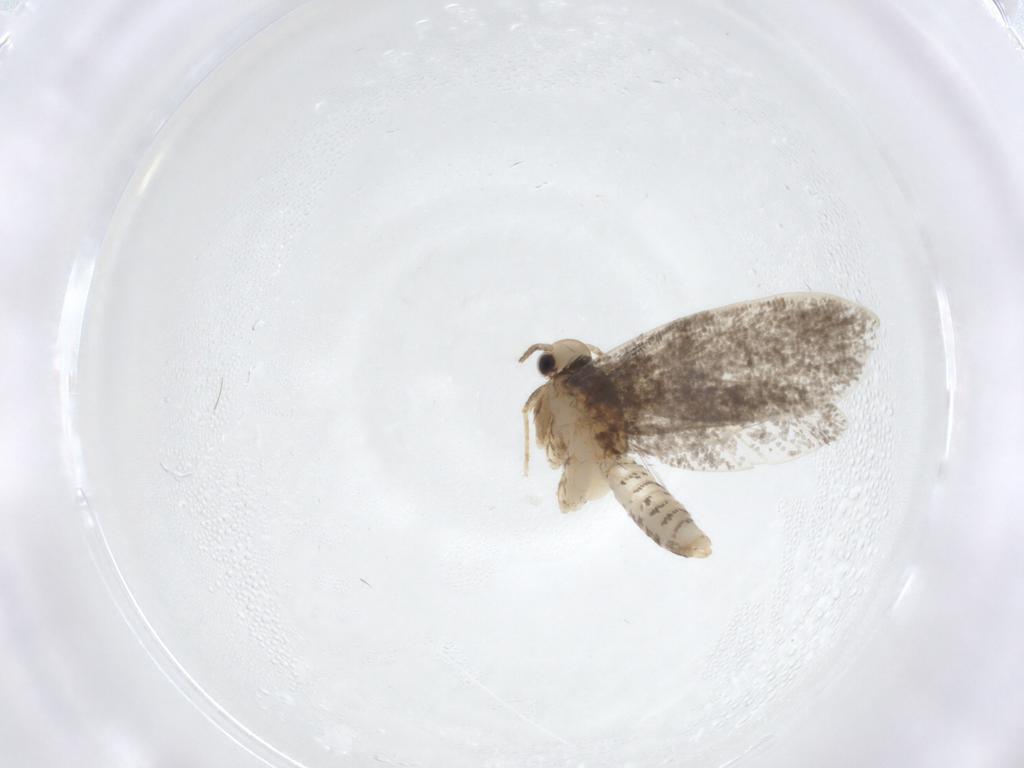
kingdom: Animalia
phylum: Arthropoda
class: Insecta
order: Lepidoptera
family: Psychidae
